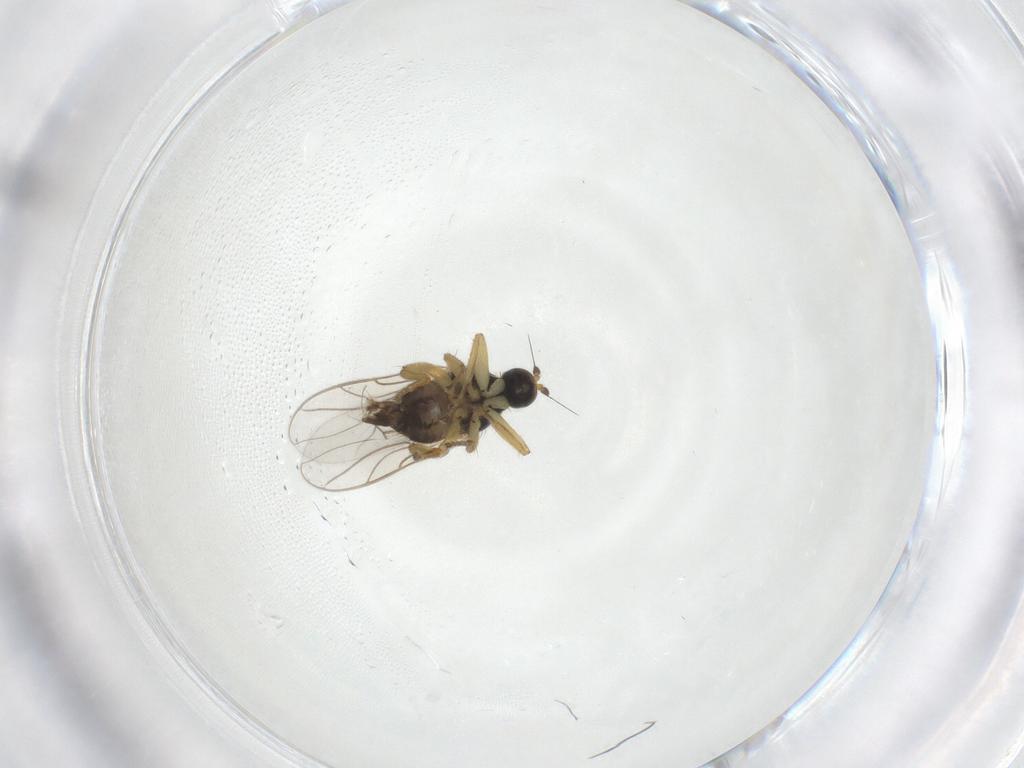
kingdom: Animalia
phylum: Arthropoda
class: Insecta
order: Diptera
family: Hybotidae
